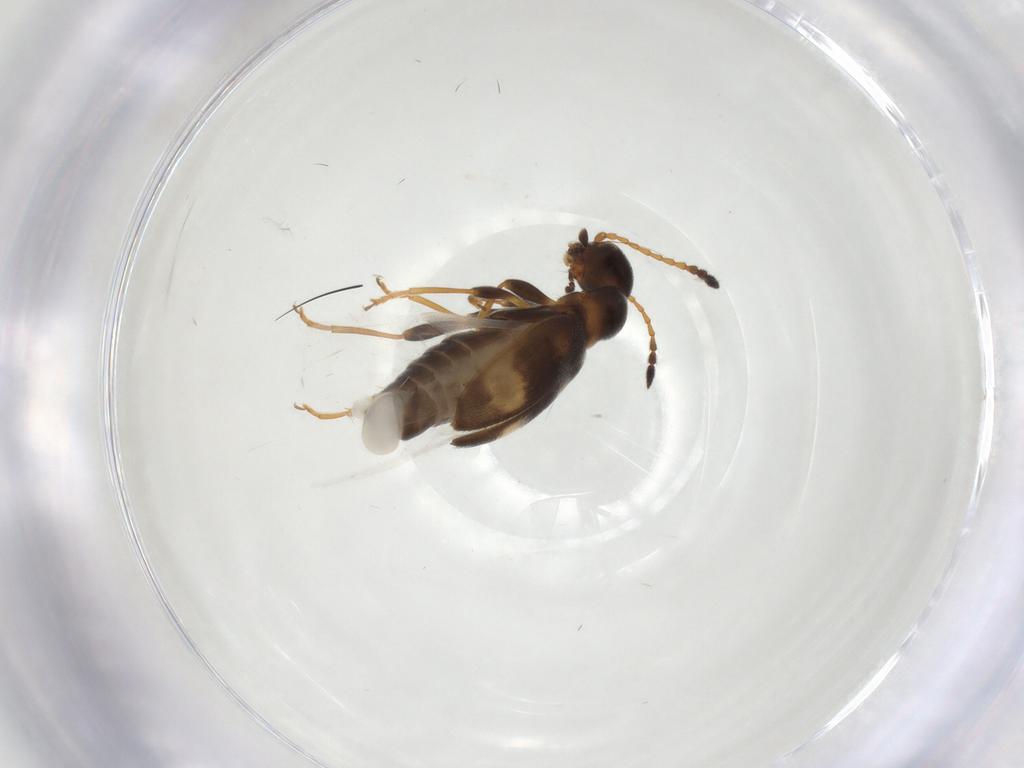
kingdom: Animalia
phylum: Arthropoda
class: Insecta
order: Coleoptera
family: Anthicidae
